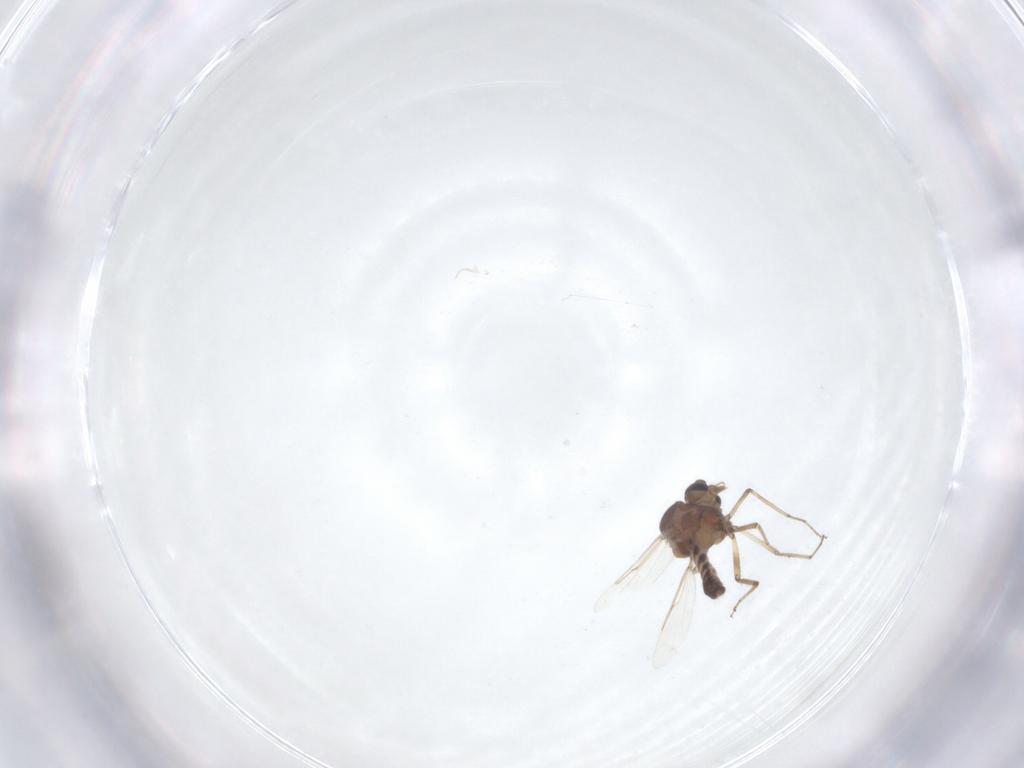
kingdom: Animalia
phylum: Arthropoda
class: Insecta
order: Diptera
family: Ceratopogonidae
